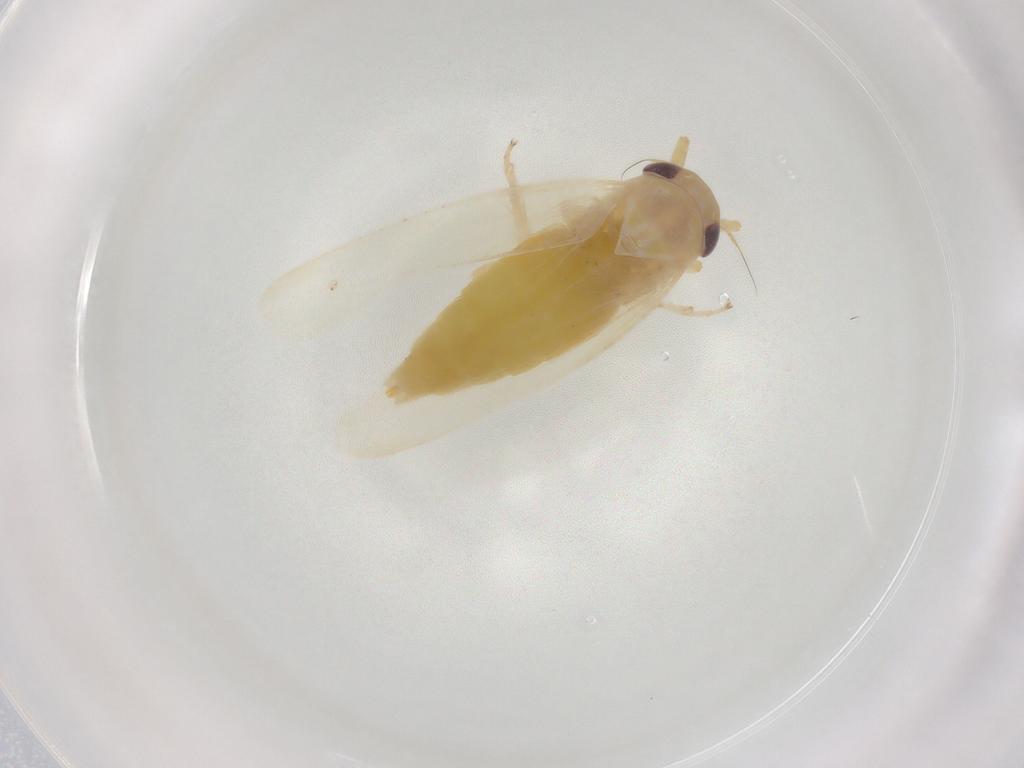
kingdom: Animalia
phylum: Arthropoda
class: Insecta
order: Hemiptera
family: Cicadellidae
